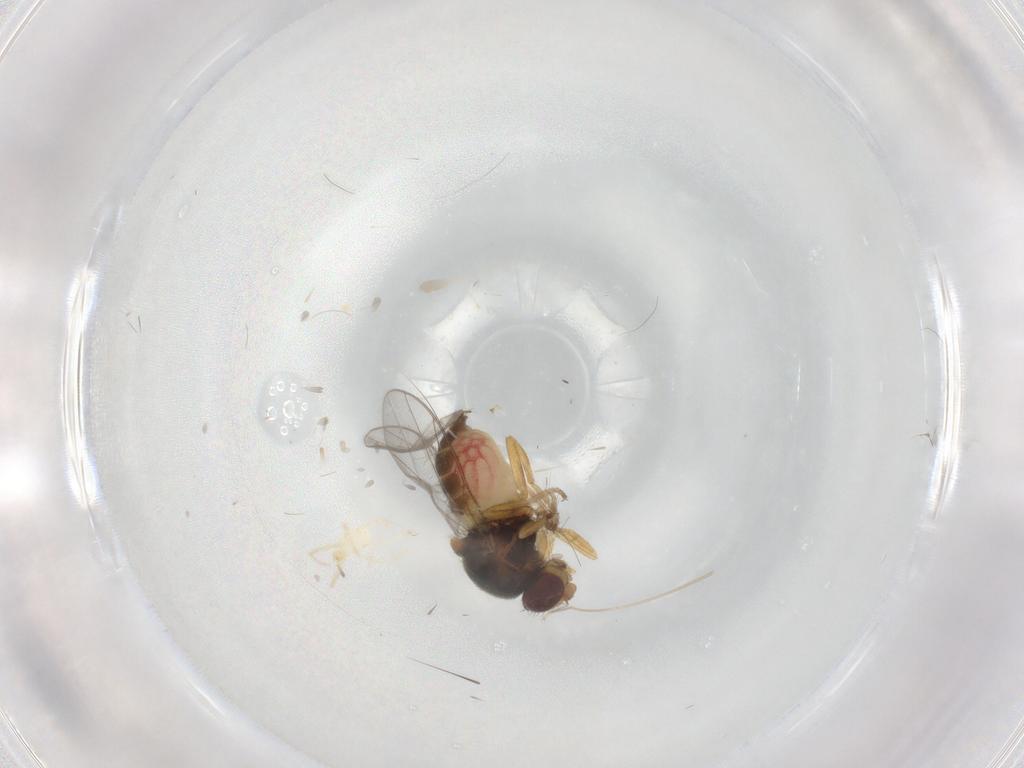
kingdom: Animalia
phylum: Arthropoda
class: Insecta
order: Diptera
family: Chloropidae
